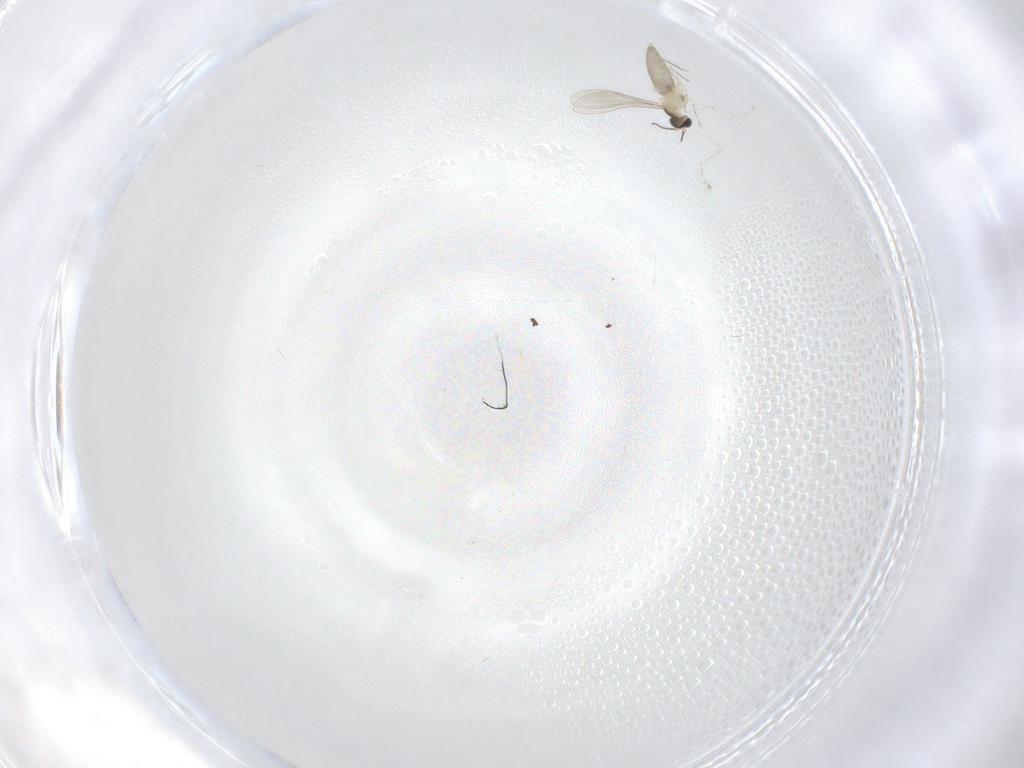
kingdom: Animalia
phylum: Arthropoda
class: Insecta
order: Diptera
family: Cecidomyiidae
